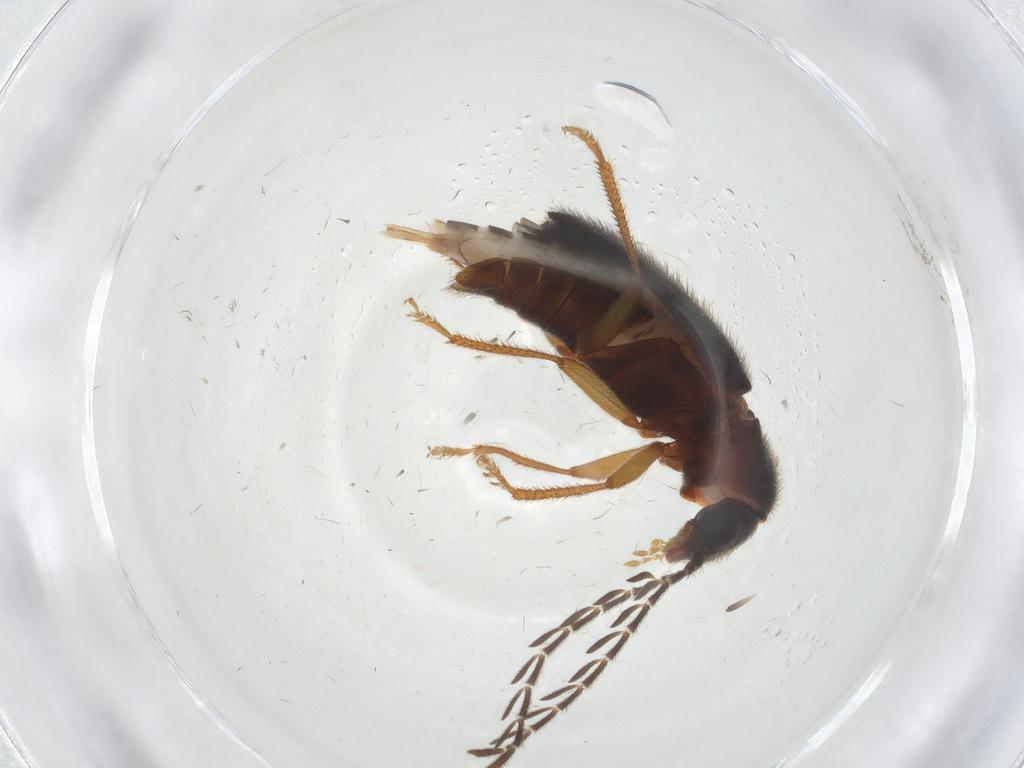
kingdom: Animalia
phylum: Arthropoda
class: Insecta
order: Coleoptera
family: Ptilodactylidae
